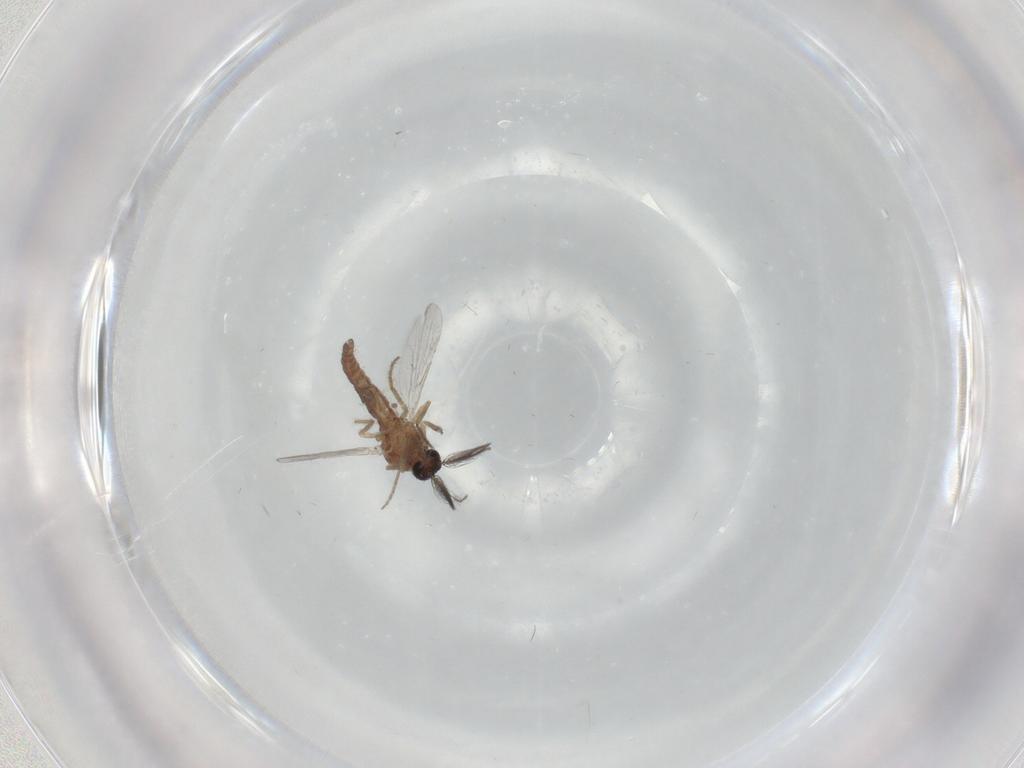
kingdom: Animalia
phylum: Arthropoda
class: Insecta
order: Diptera
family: Ceratopogonidae
